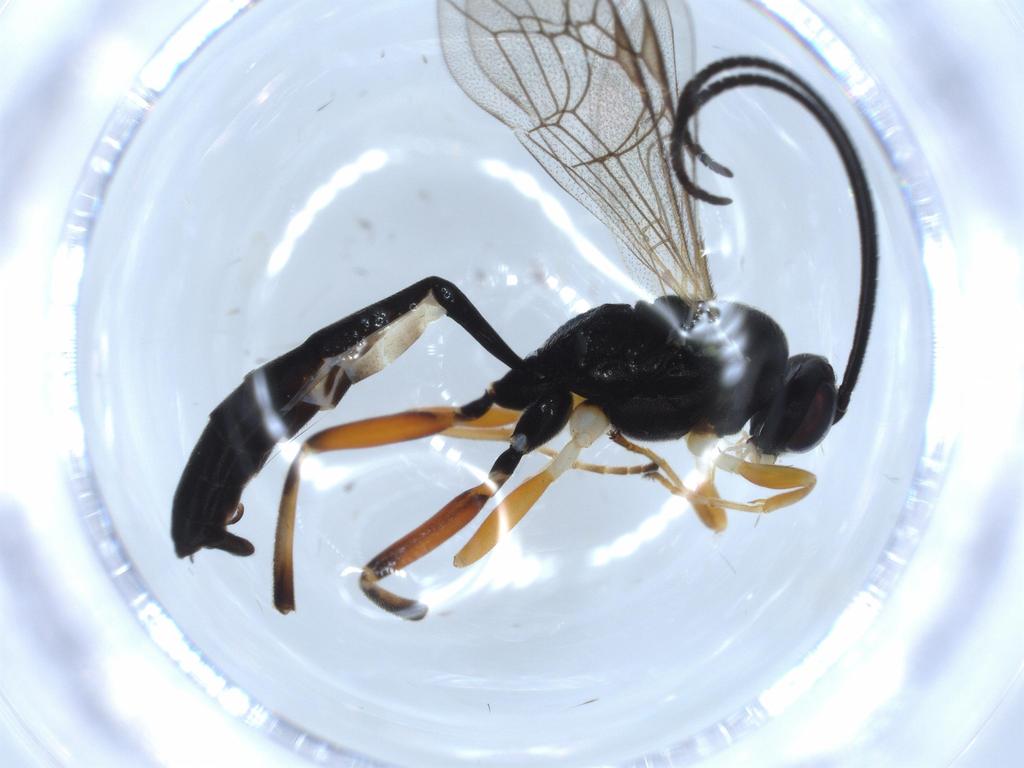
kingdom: Animalia
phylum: Arthropoda
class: Insecta
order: Hymenoptera
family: Ichneumonidae
